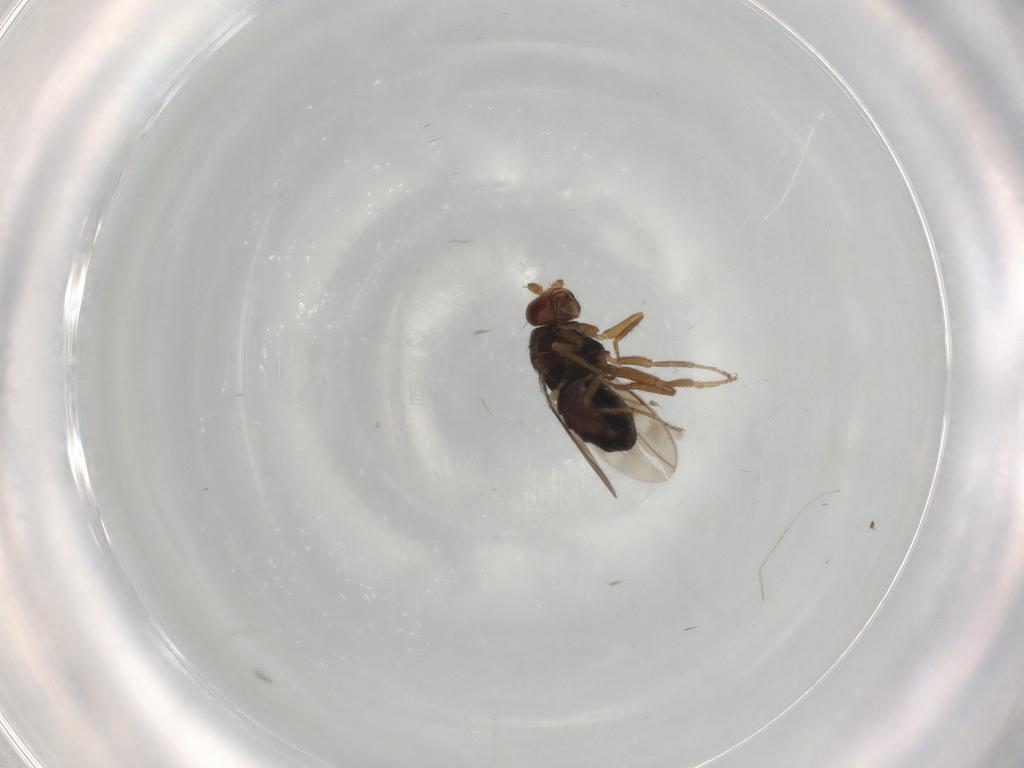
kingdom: Animalia
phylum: Arthropoda
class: Insecta
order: Diptera
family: Sphaeroceridae
